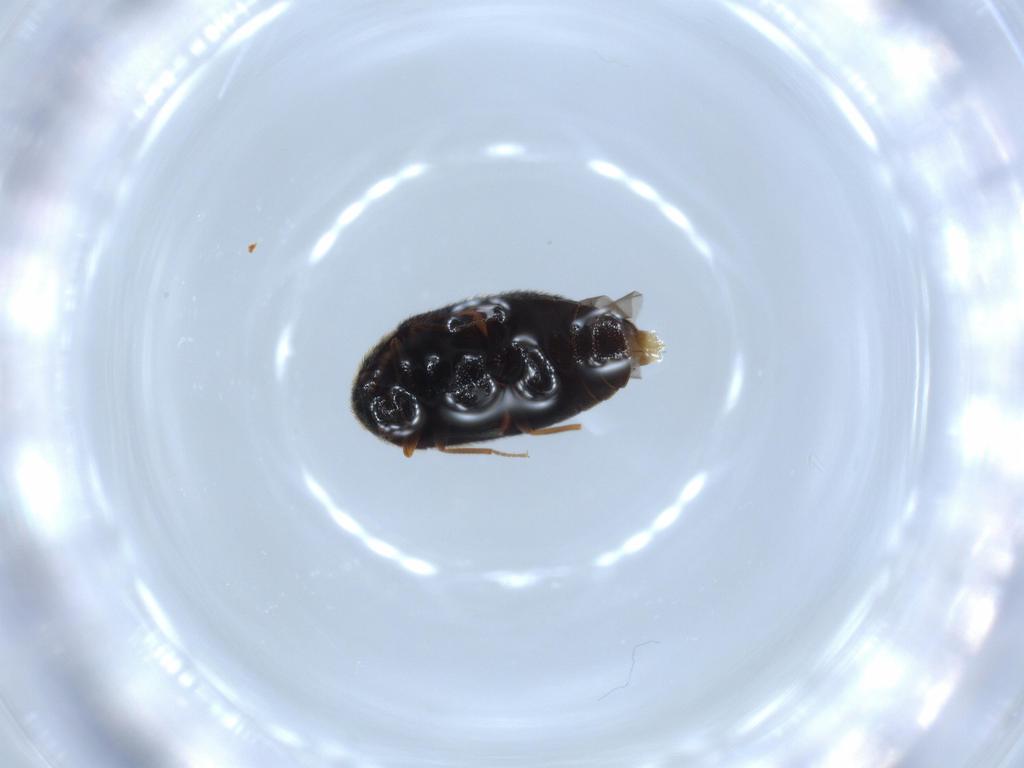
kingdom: Animalia
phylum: Arthropoda
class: Insecta
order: Coleoptera
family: Dermestidae
